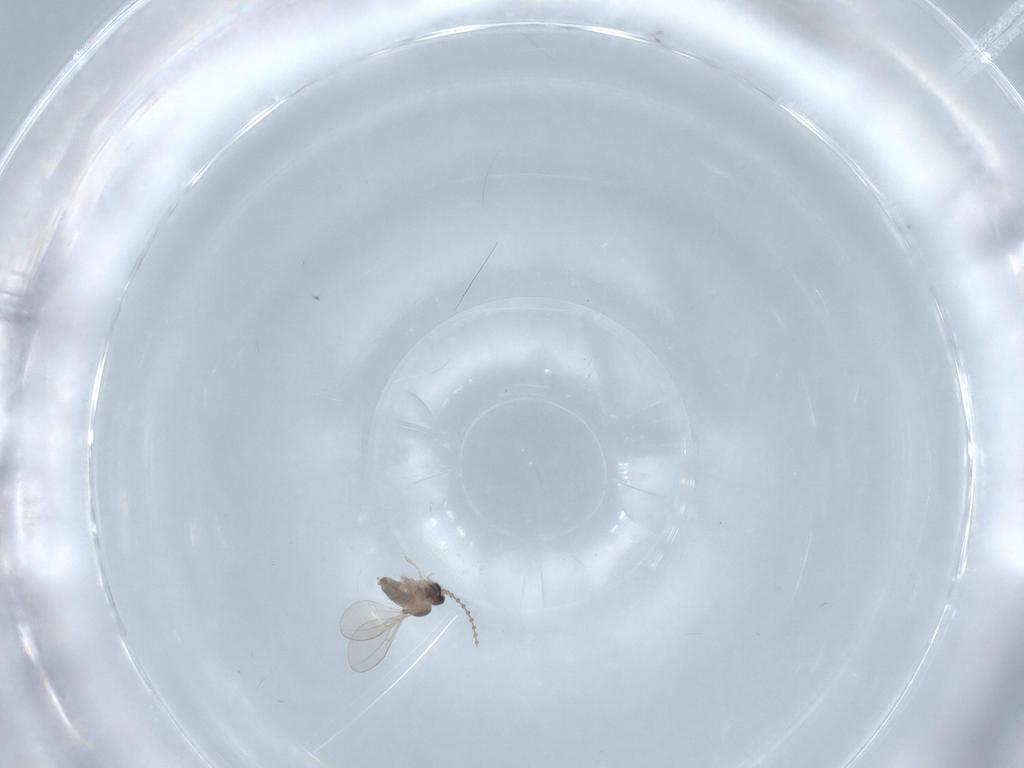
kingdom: Animalia
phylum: Arthropoda
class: Insecta
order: Diptera
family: Cecidomyiidae
